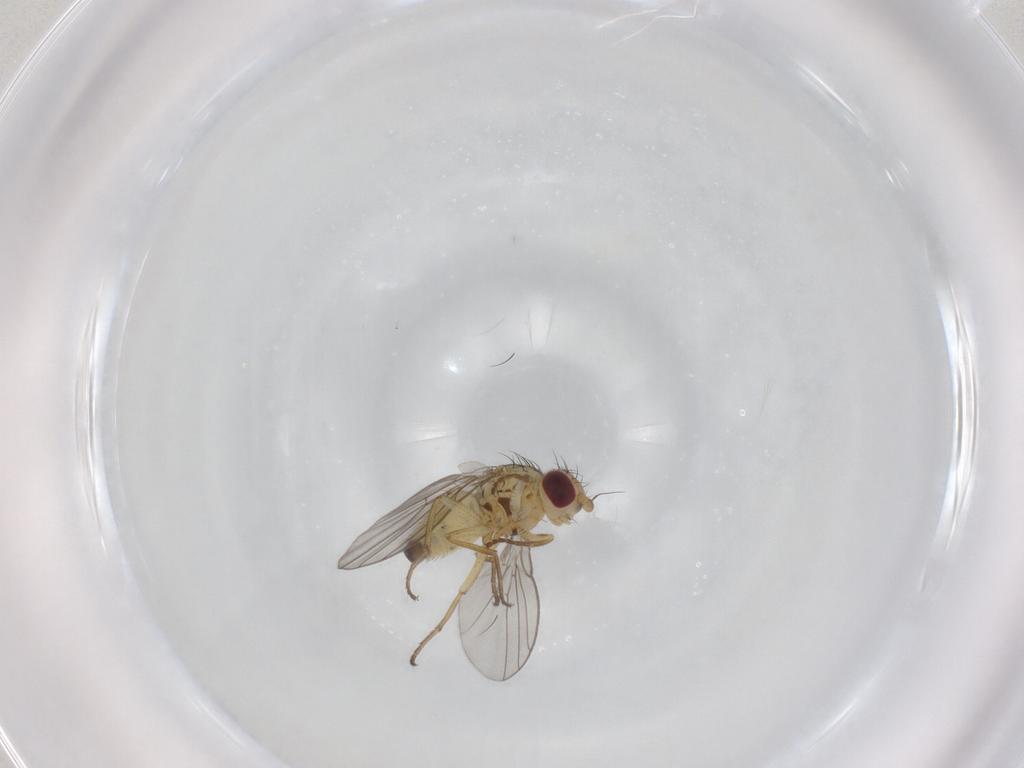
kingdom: Animalia
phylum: Arthropoda
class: Insecta
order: Diptera
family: Agromyzidae
